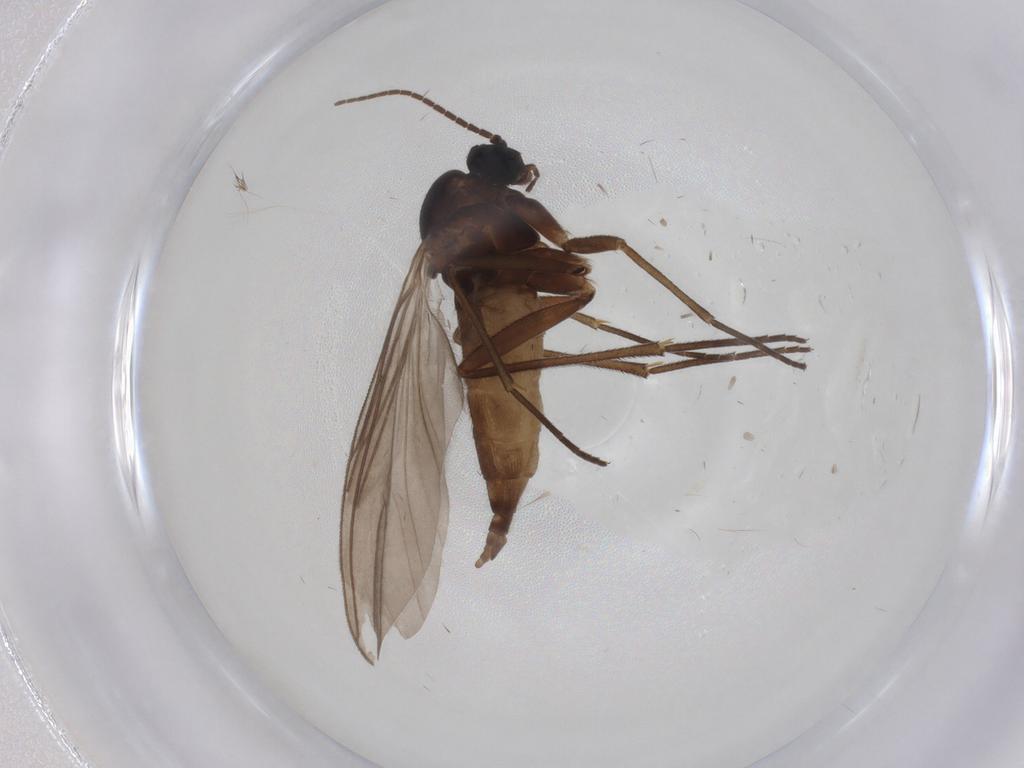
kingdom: Animalia
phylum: Arthropoda
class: Insecta
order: Diptera
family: Sciaridae
